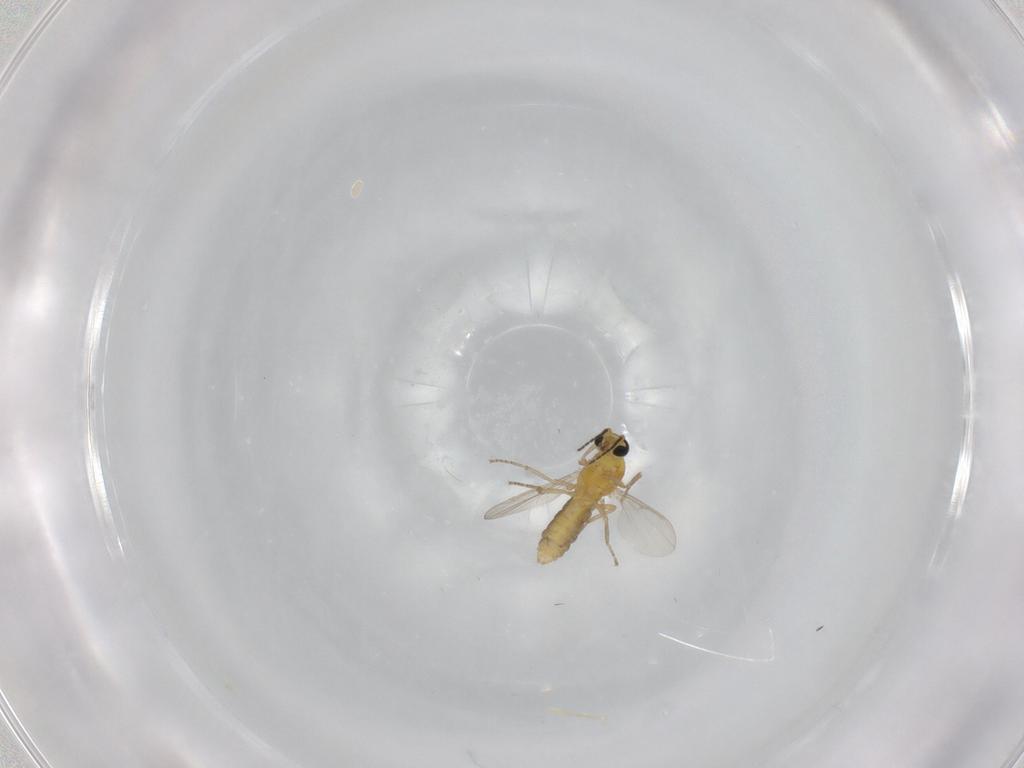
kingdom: Animalia
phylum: Arthropoda
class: Insecta
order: Diptera
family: Ceratopogonidae
